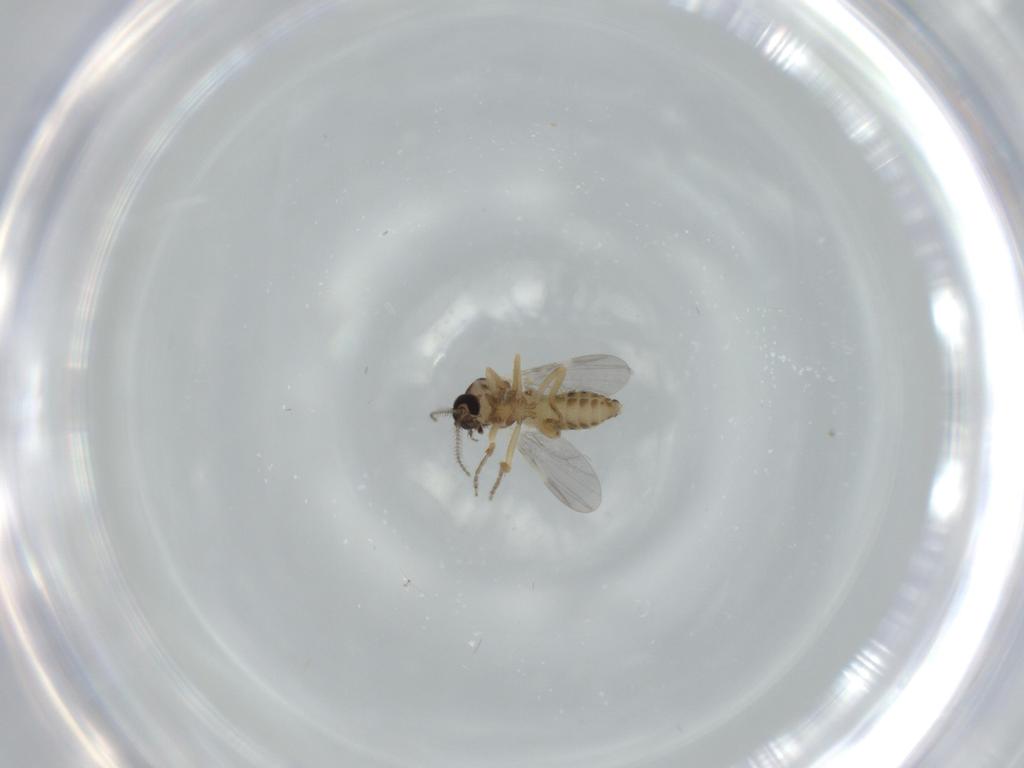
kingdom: Animalia
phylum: Arthropoda
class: Insecta
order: Diptera
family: Ceratopogonidae
